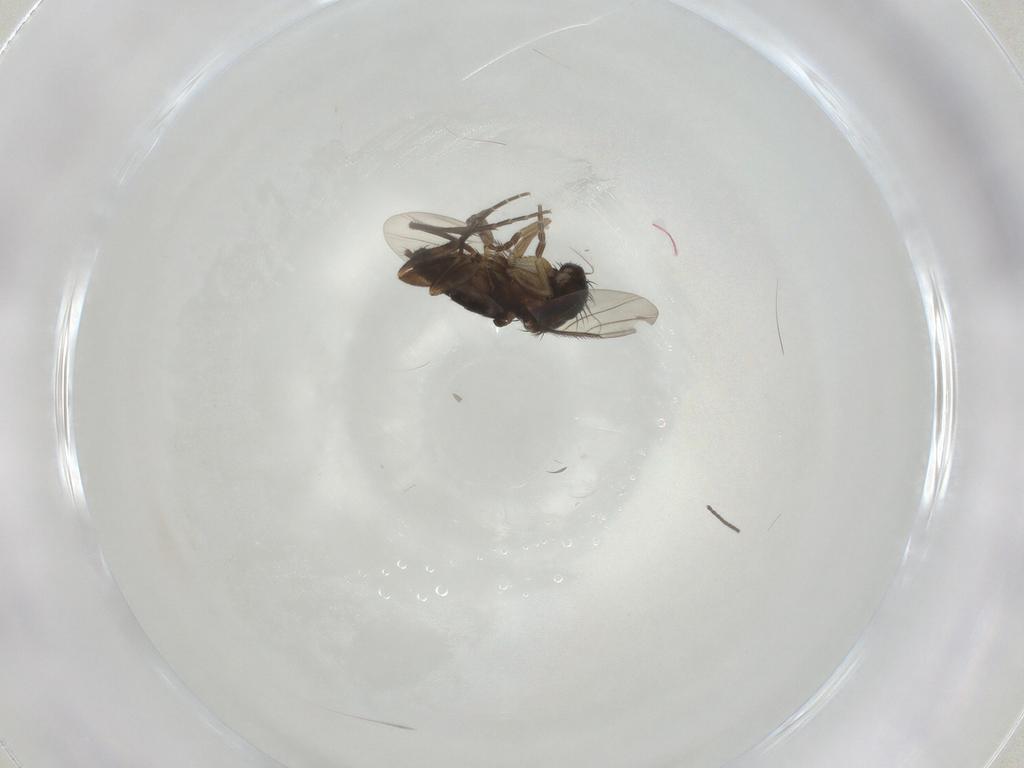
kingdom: Animalia
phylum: Arthropoda
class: Insecta
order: Diptera
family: Phoridae
